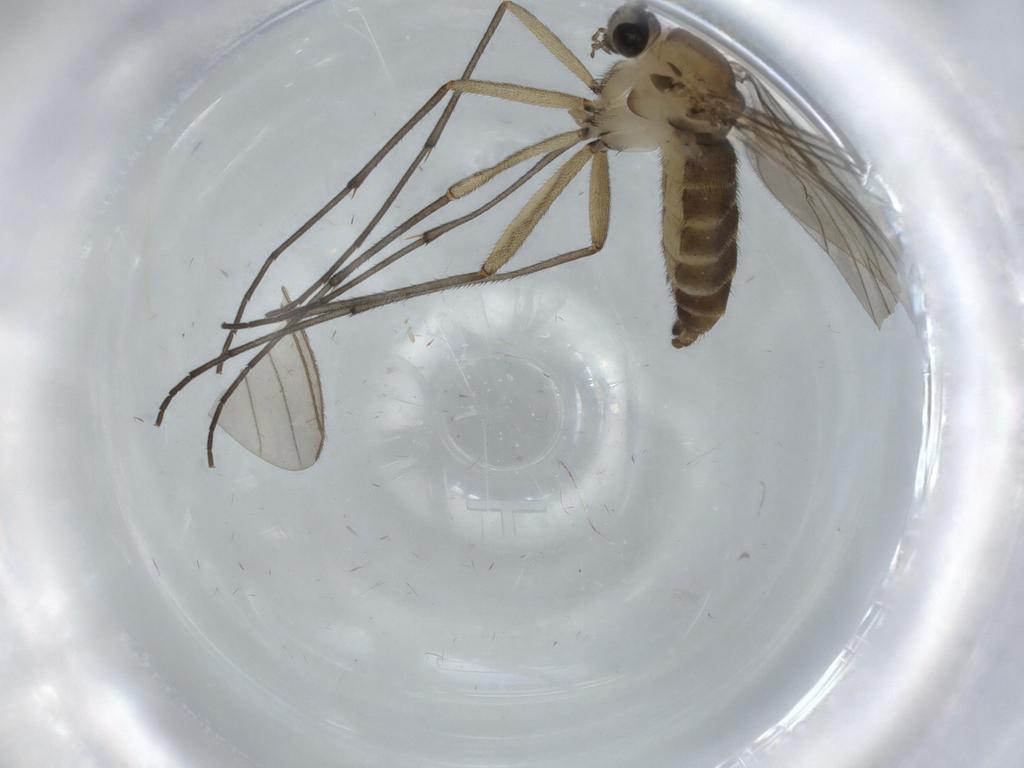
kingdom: Animalia
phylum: Arthropoda
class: Insecta
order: Diptera
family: Sciaridae
